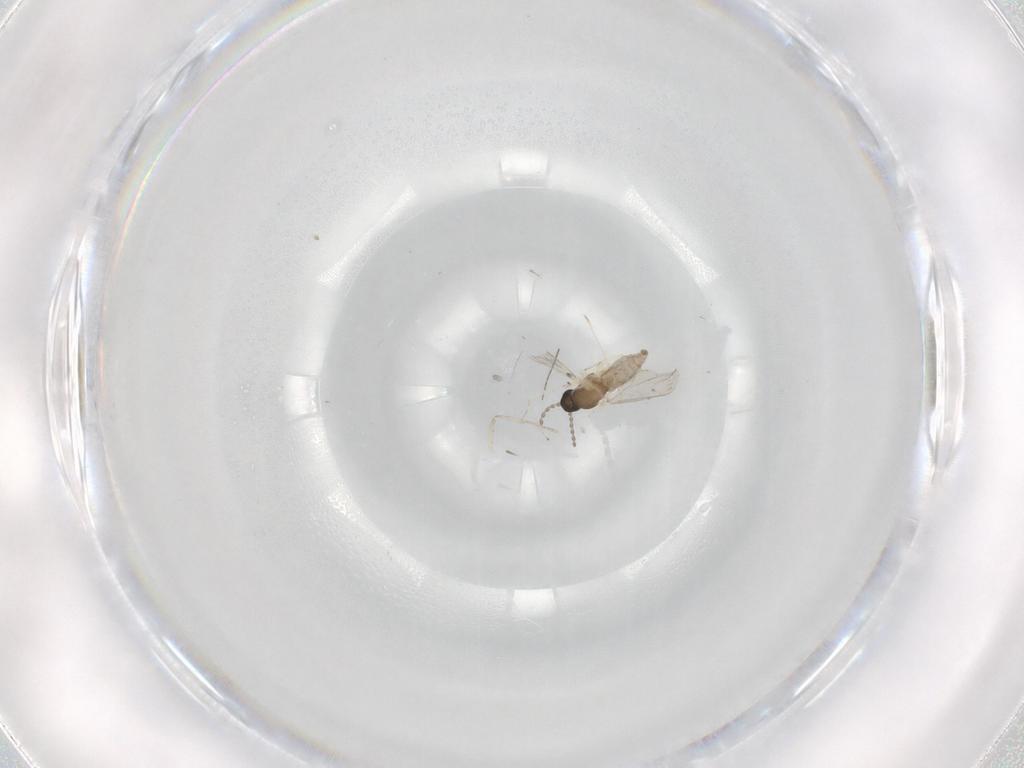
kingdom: Animalia
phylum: Arthropoda
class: Insecta
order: Diptera
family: Cecidomyiidae
